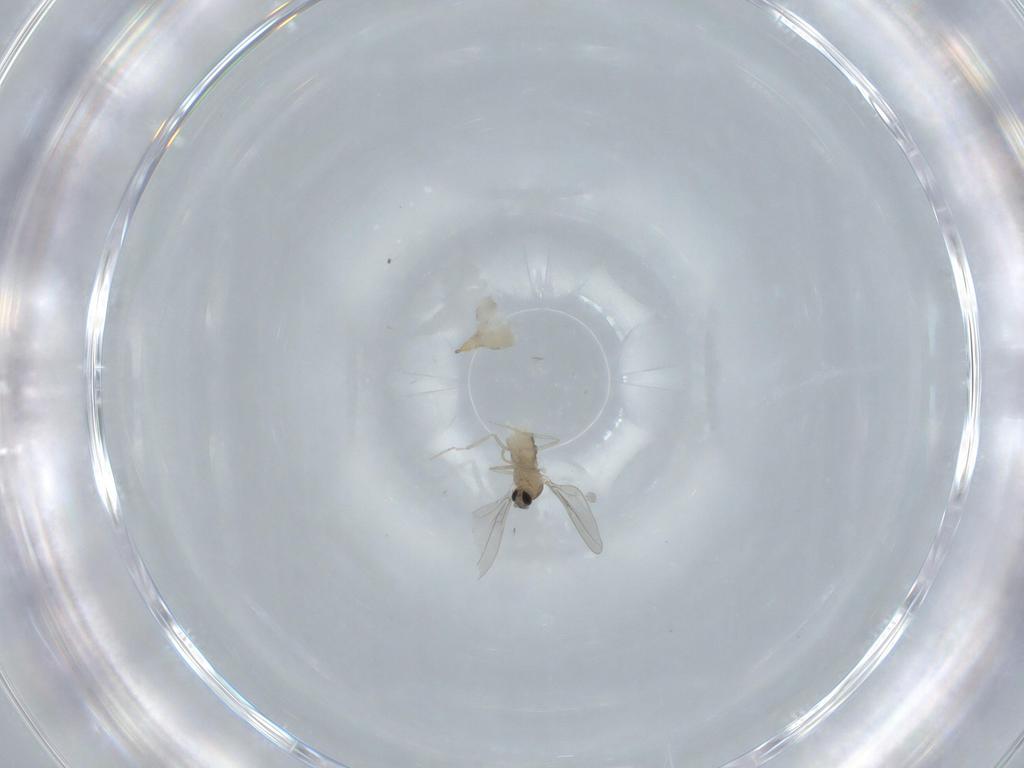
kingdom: Animalia
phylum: Arthropoda
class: Insecta
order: Diptera
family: Cecidomyiidae
